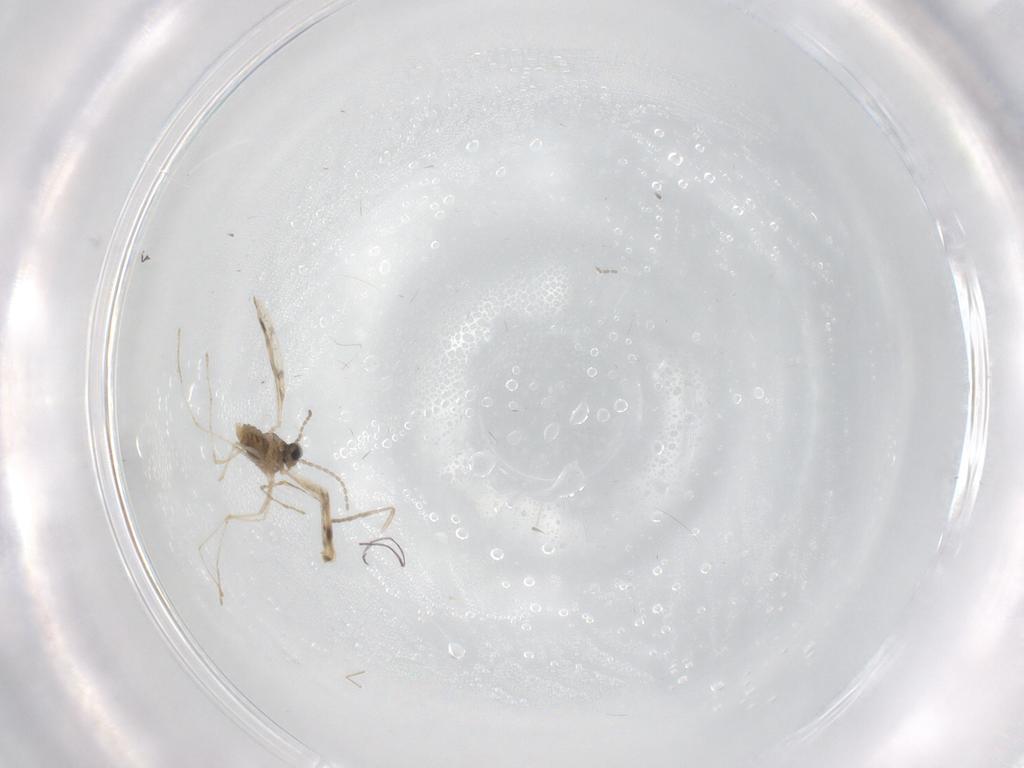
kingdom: Animalia
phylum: Arthropoda
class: Insecta
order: Diptera
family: Cecidomyiidae
